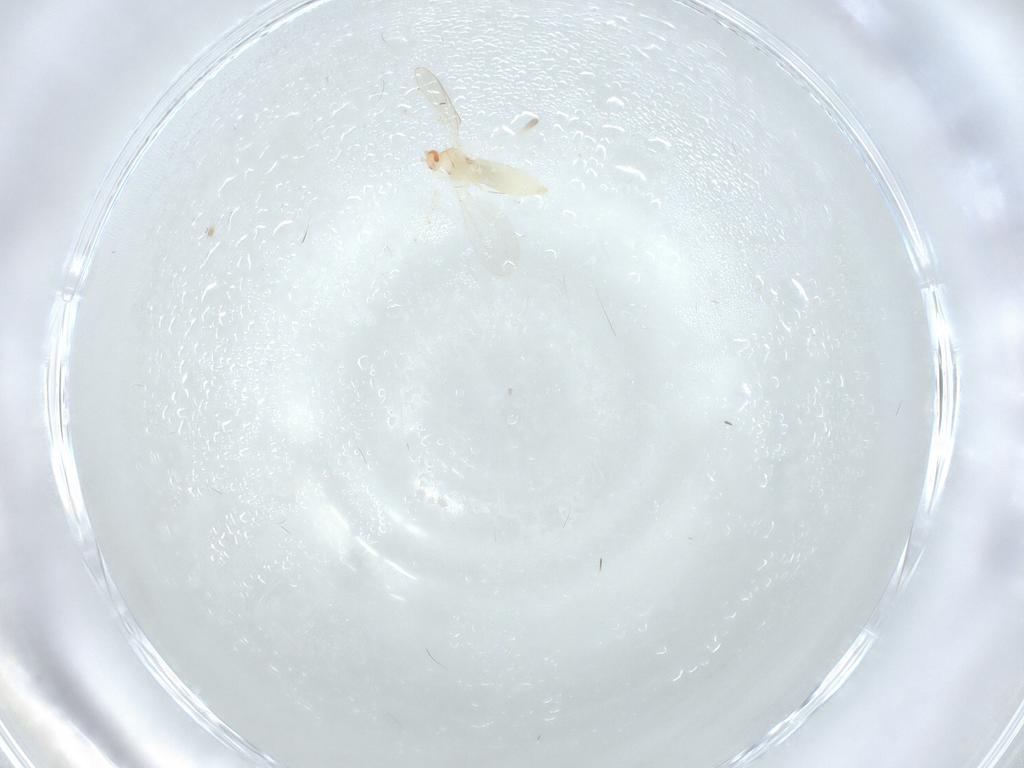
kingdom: Animalia
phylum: Arthropoda
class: Insecta
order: Diptera
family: Cecidomyiidae
